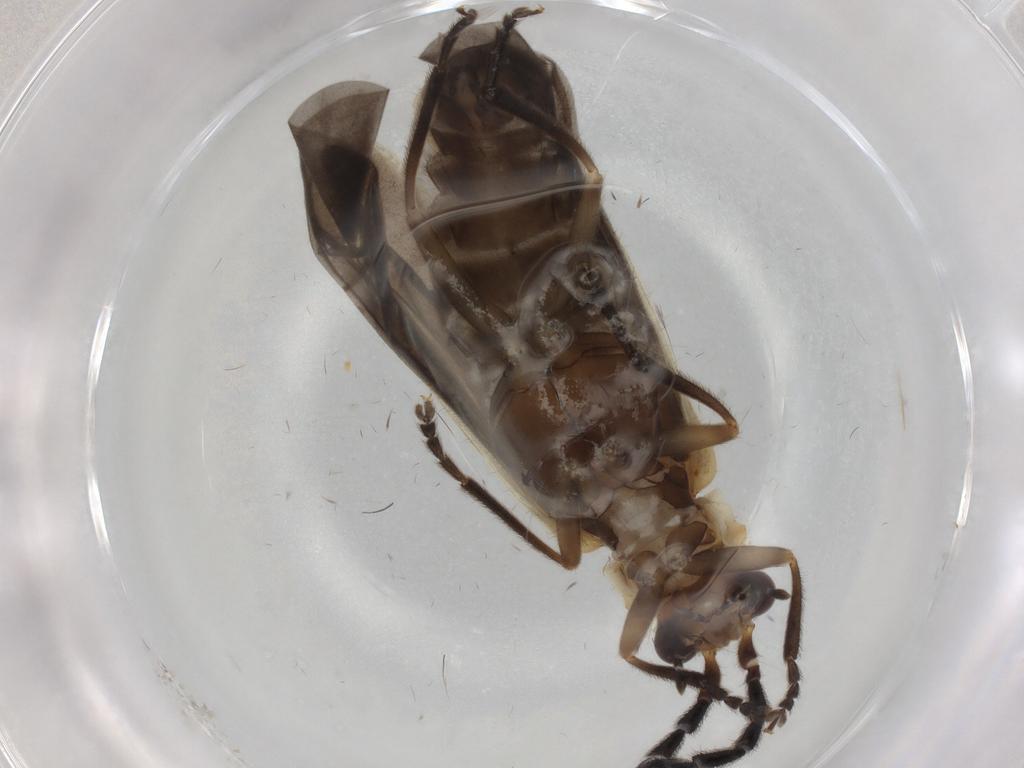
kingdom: Animalia
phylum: Arthropoda
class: Insecta
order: Coleoptera
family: Cantharidae
